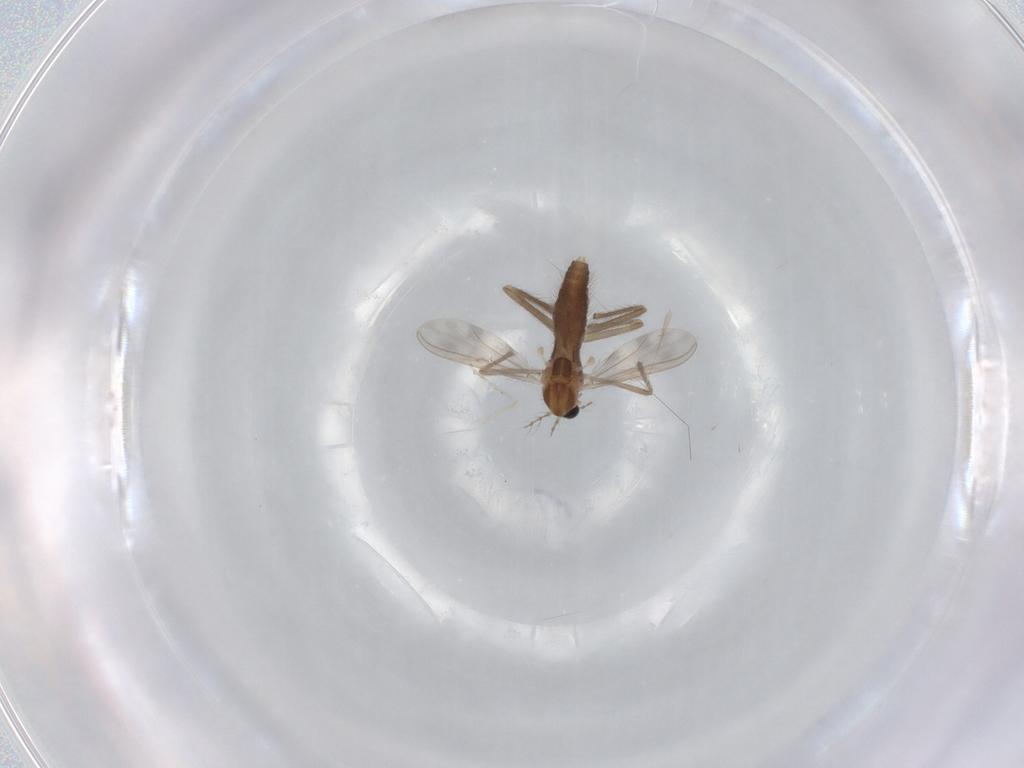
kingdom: Animalia
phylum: Arthropoda
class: Insecta
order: Diptera
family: Chironomidae
